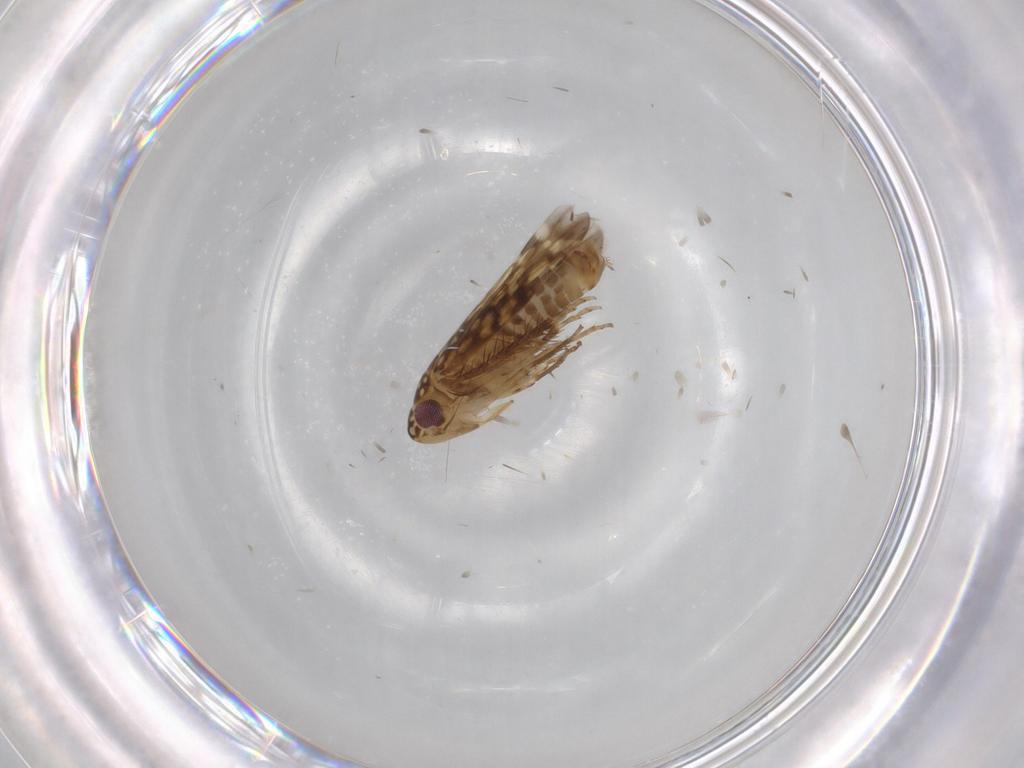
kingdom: Animalia
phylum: Arthropoda
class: Insecta
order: Hemiptera
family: Cicadellidae
